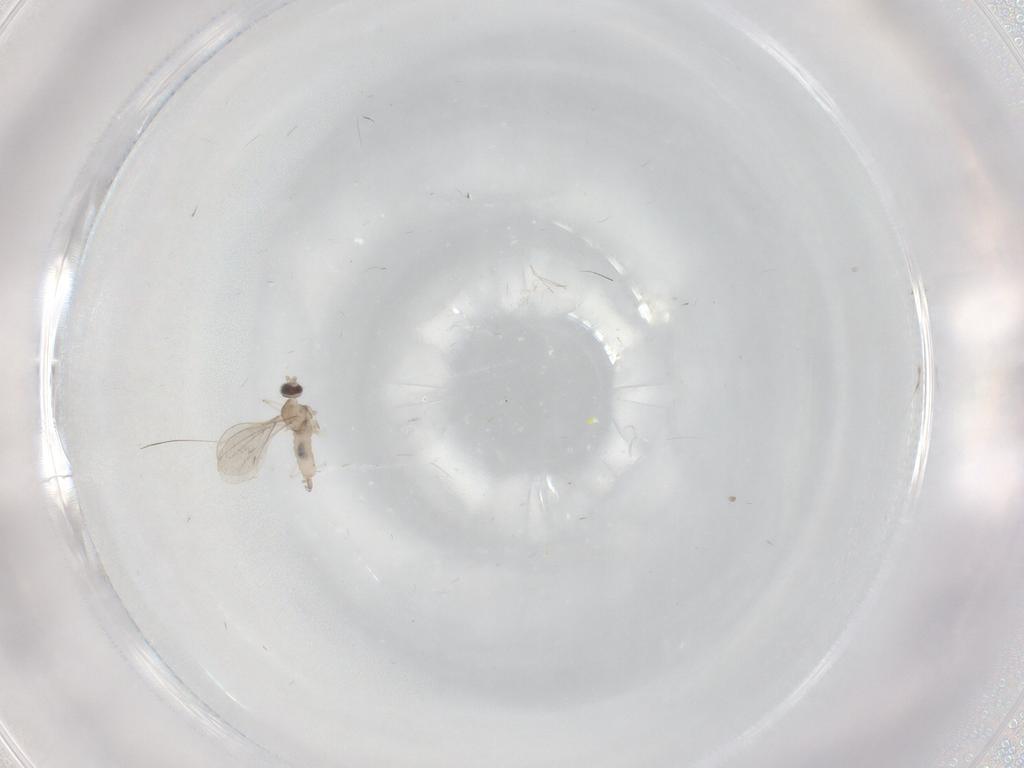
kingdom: Animalia
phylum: Arthropoda
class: Insecta
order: Diptera
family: Cecidomyiidae
